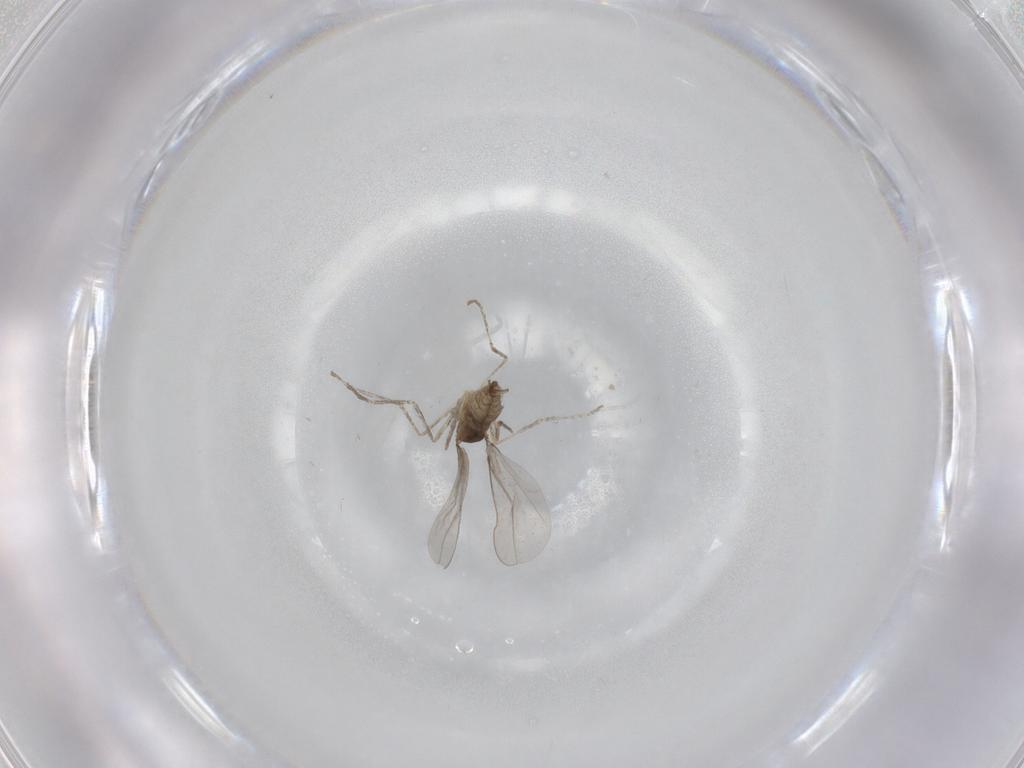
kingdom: Animalia
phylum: Arthropoda
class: Insecta
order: Diptera
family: Cecidomyiidae
